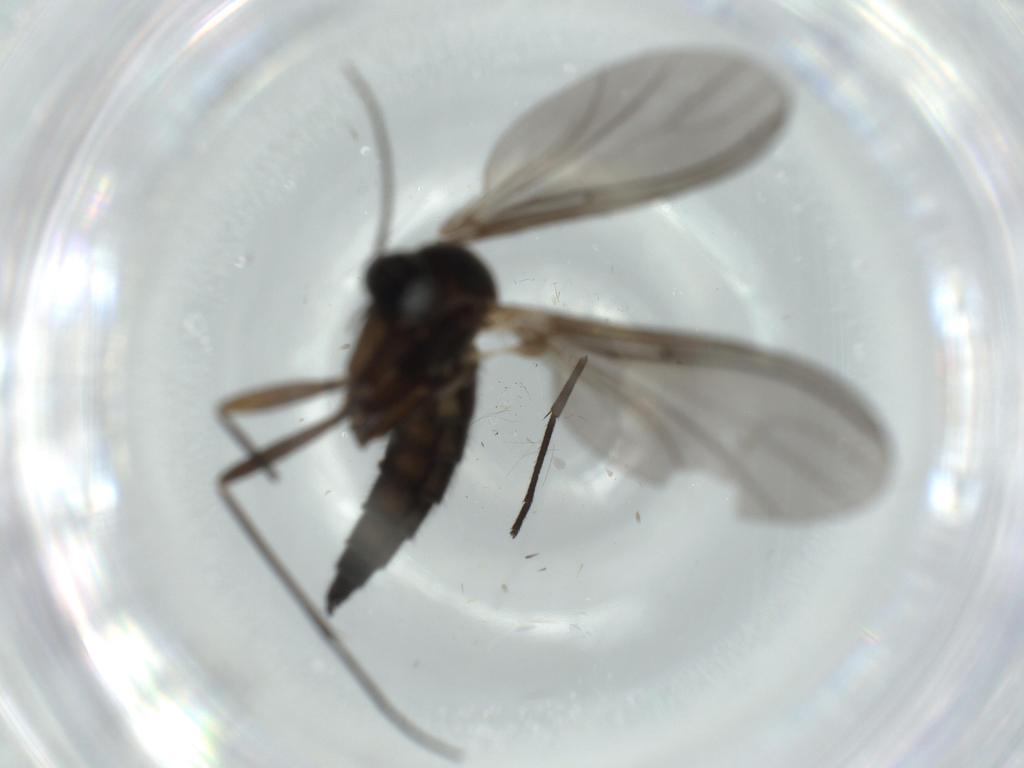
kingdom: Animalia
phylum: Arthropoda
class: Insecta
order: Diptera
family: Sciaridae
